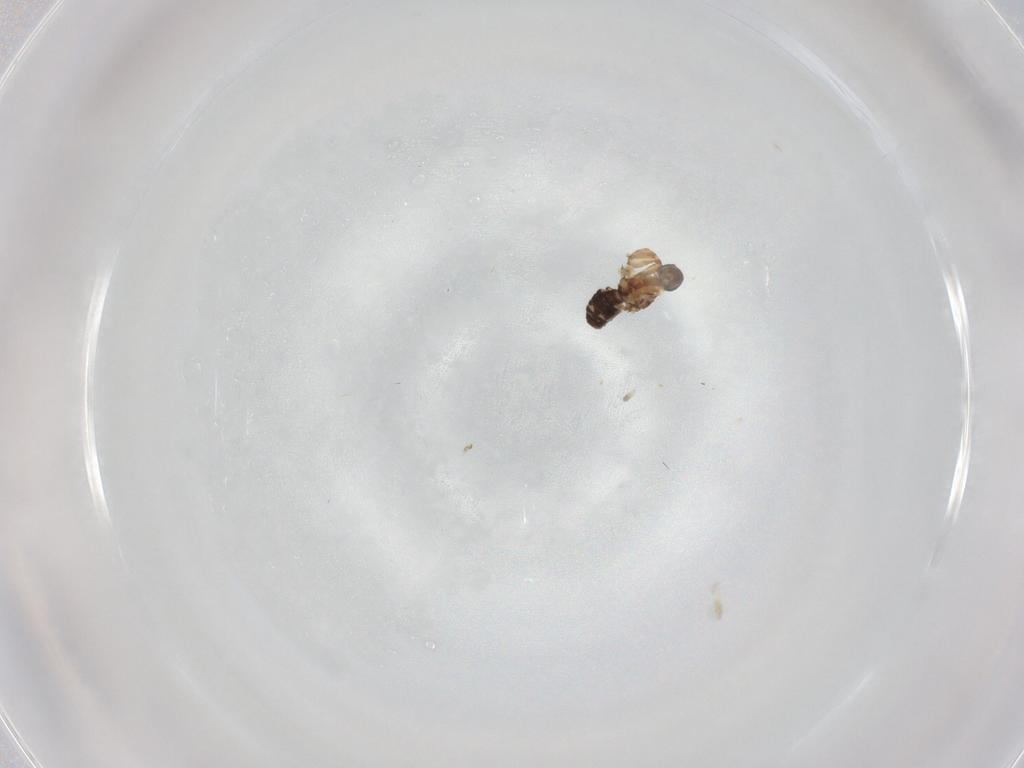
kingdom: Animalia
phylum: Arthropoda
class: Insecta
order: Diptera
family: Ceratopogonidae
